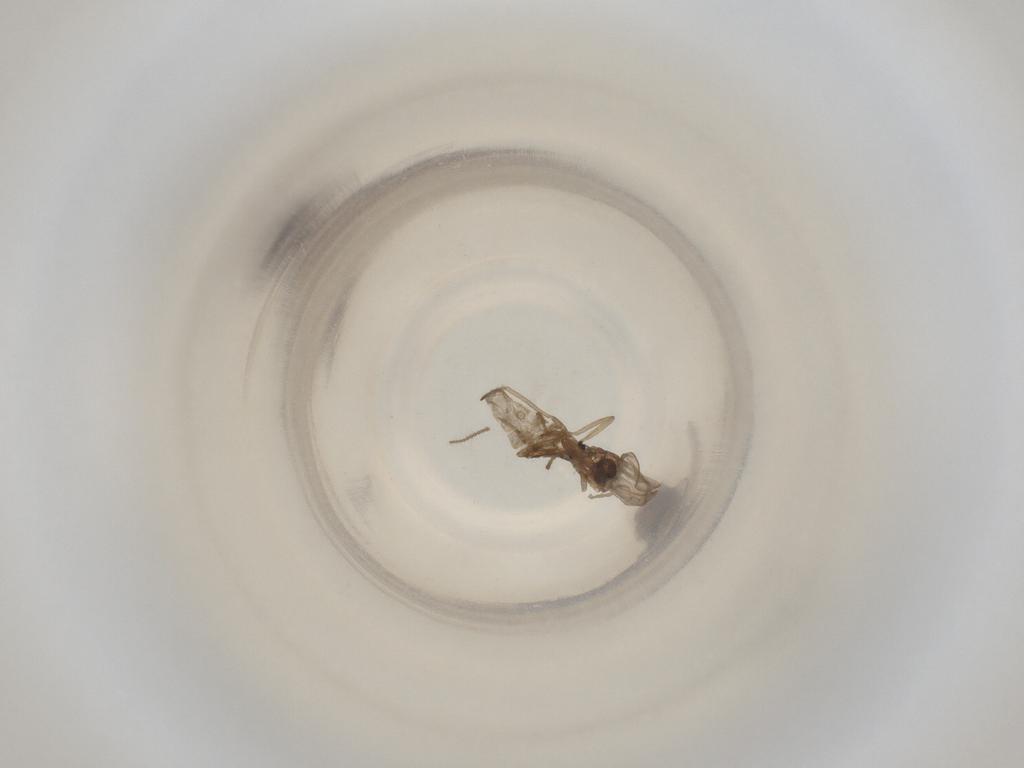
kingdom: Animalia
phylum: Arthropoda
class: Insecta
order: Diptera
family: Cecidomyiidae
